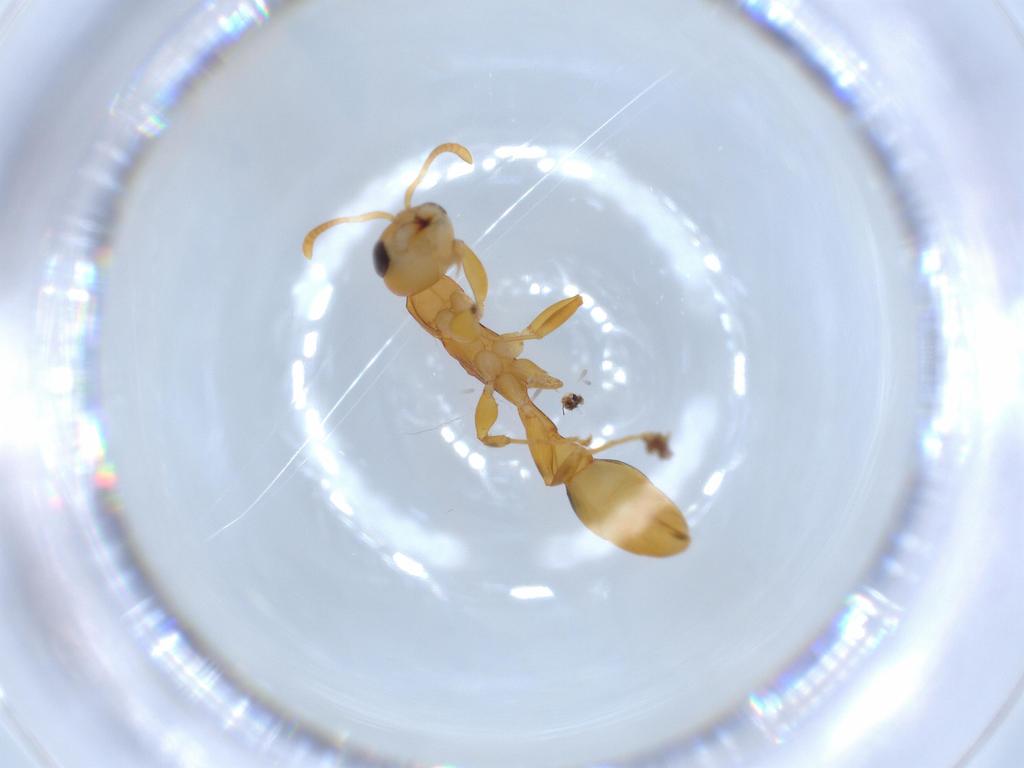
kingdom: Animalia
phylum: Arthropoda
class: Insecta
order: Hymenoptera
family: Formicidae
